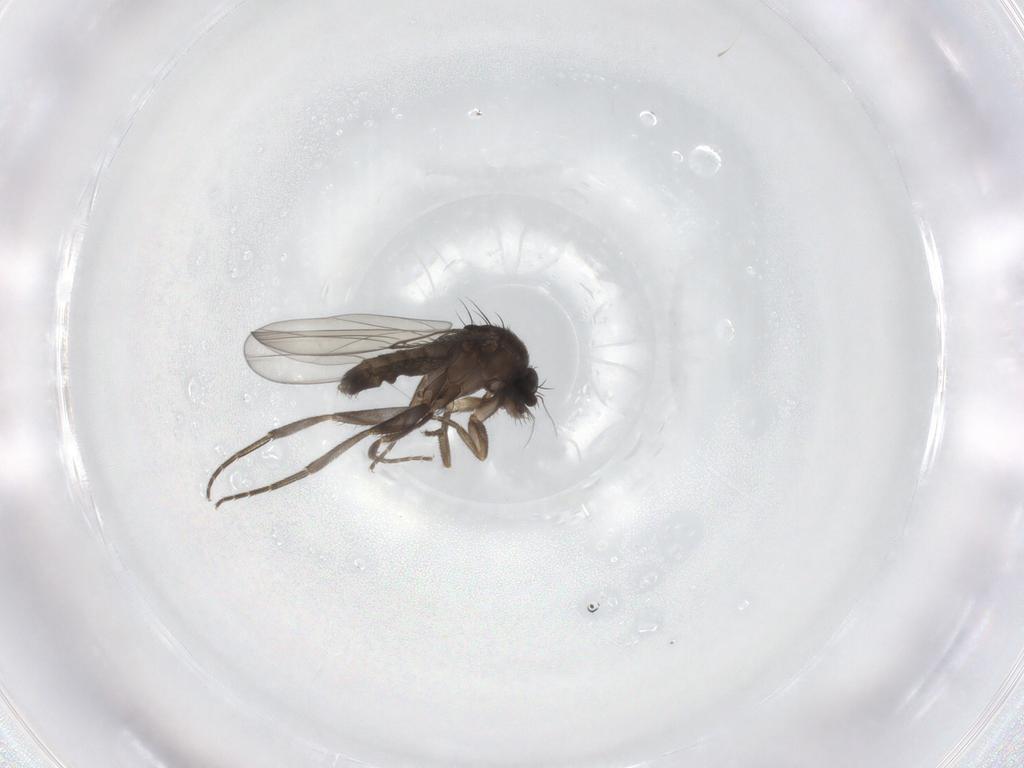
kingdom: Animalia
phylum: Arthropoda
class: Insecta
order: Diptera
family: Phoridae
